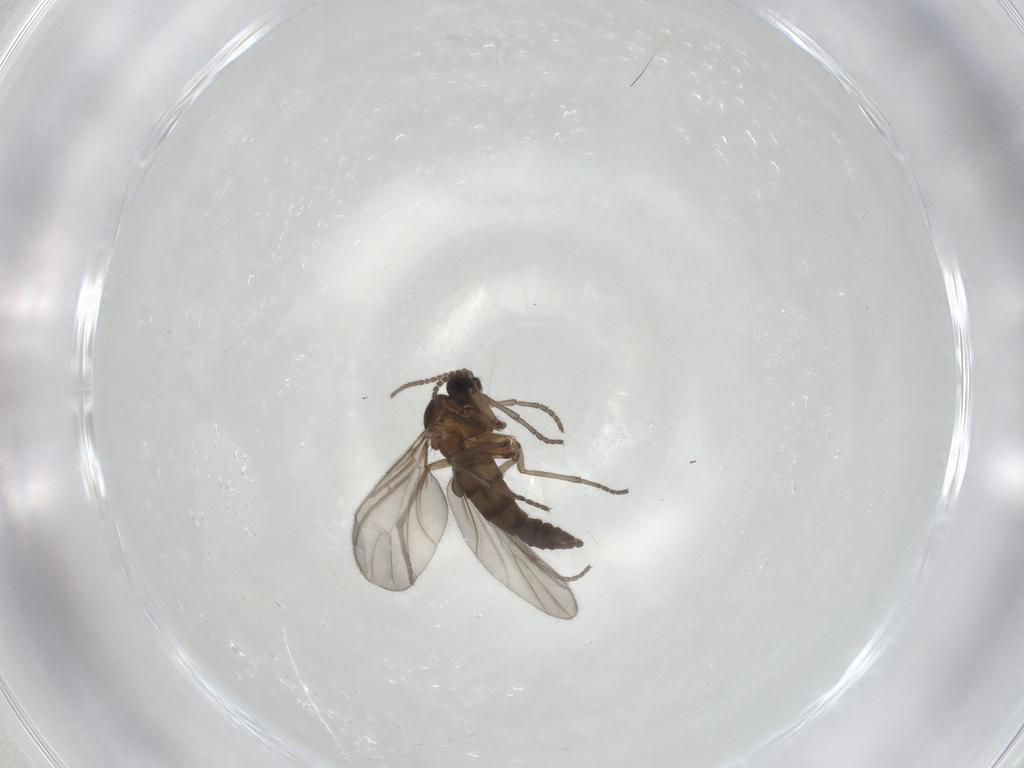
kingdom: Animalia
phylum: Arthropoda
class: Insecta
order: Diptera
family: Sciaridae
